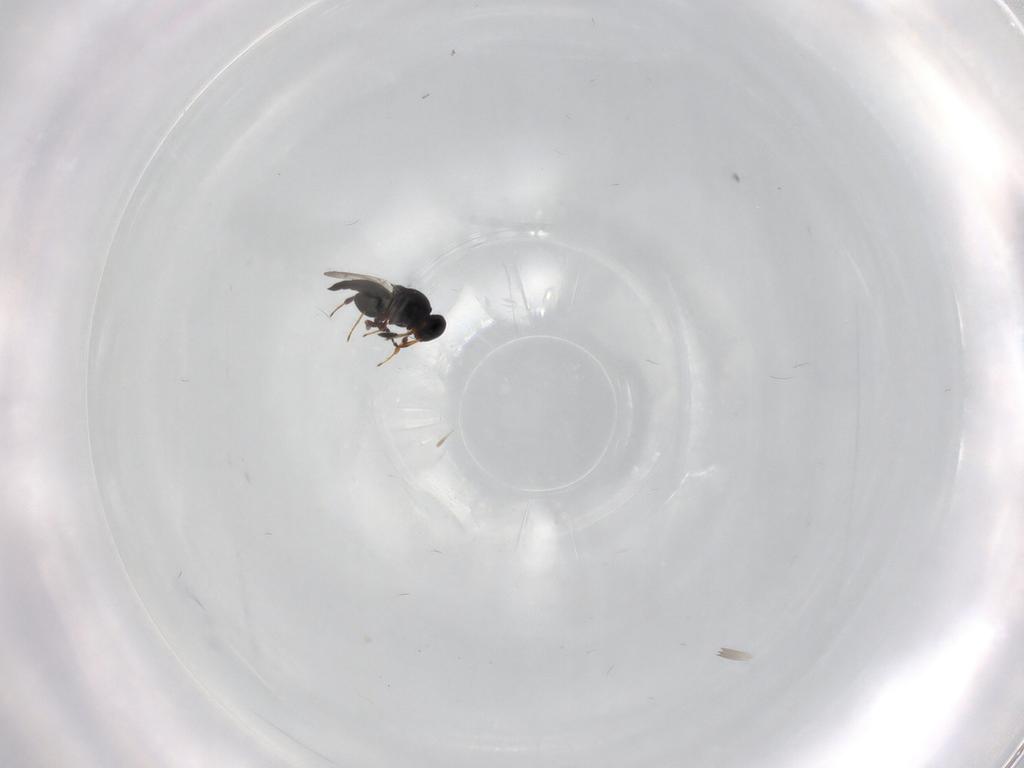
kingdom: Animalia
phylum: Arthropoda
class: Insecta
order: Hymenoptera
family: Platygastridae
